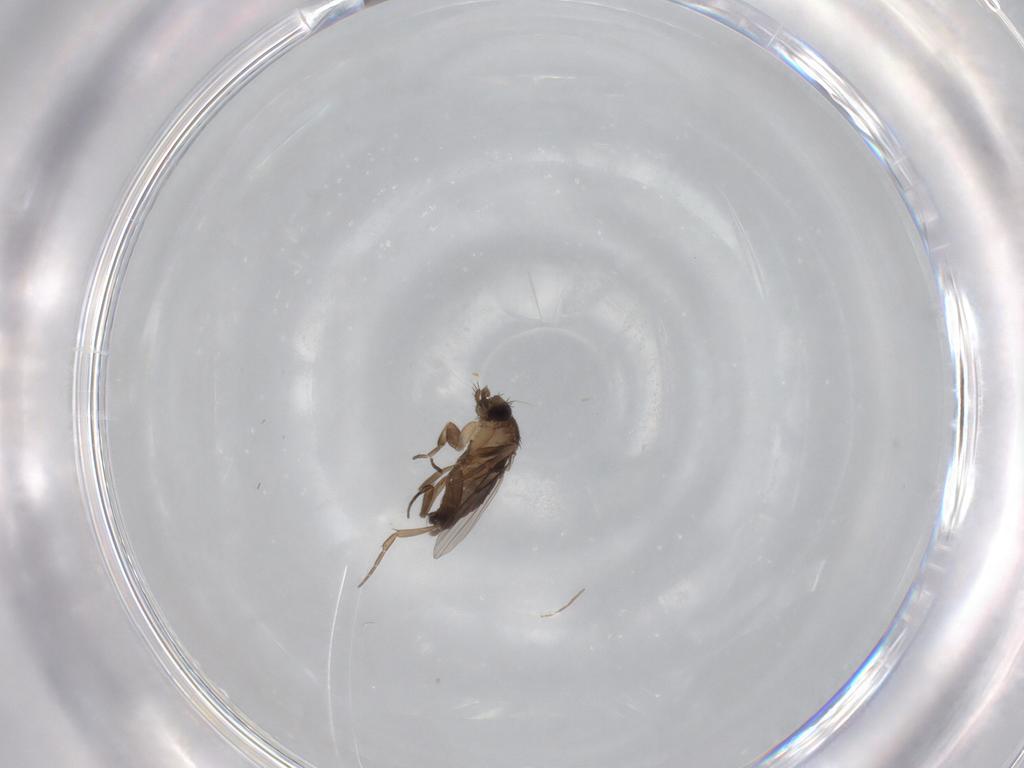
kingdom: Animalia
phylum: Arthropoda
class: Insecta
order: Diptera
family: Phoridae
